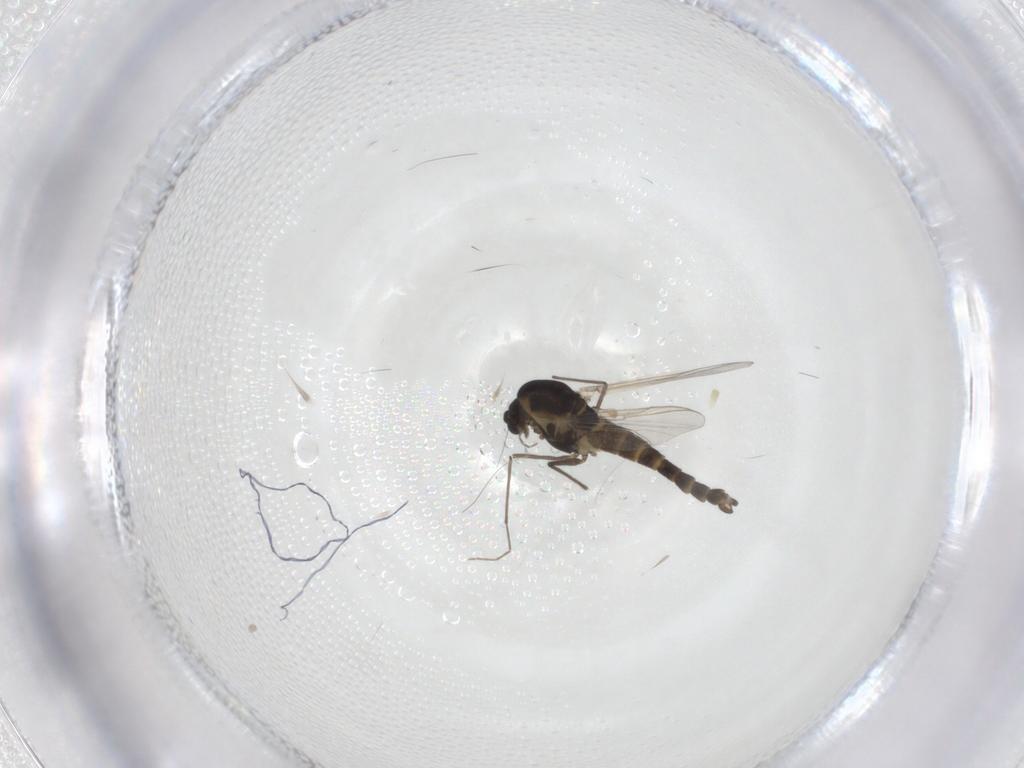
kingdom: Animalia
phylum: Arthropoda
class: Insecta
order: Diptera
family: Chironomidae
